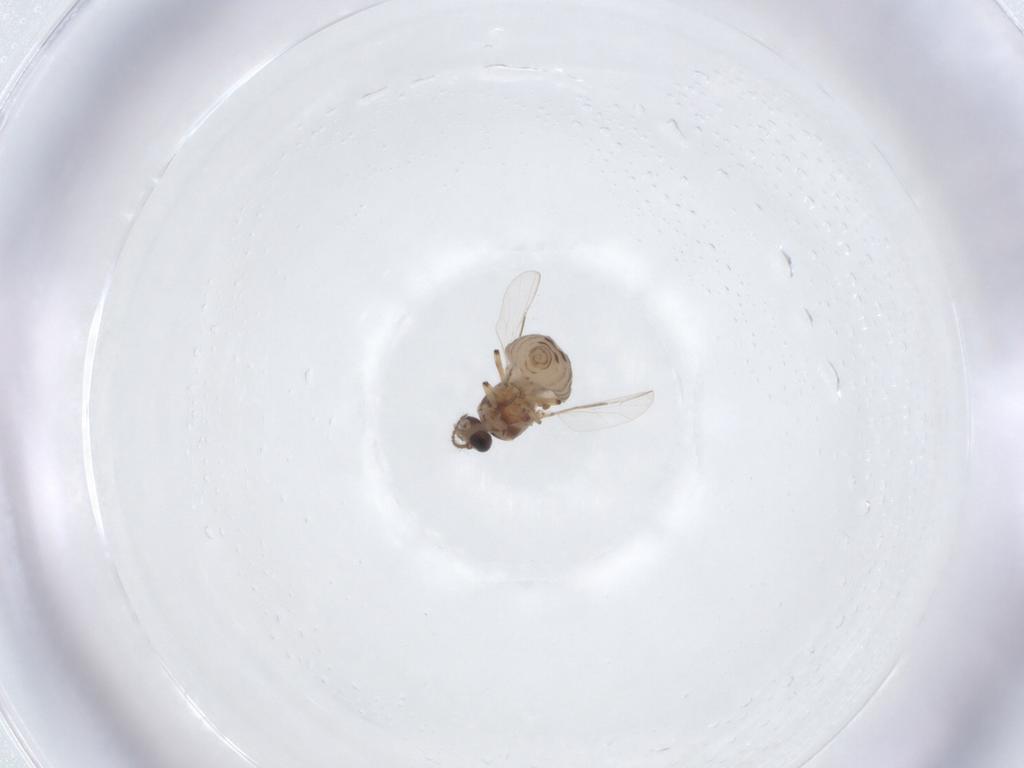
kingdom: Animalia
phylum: Arthropoda
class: Insecta
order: Diptera
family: Ceratopogonidae
